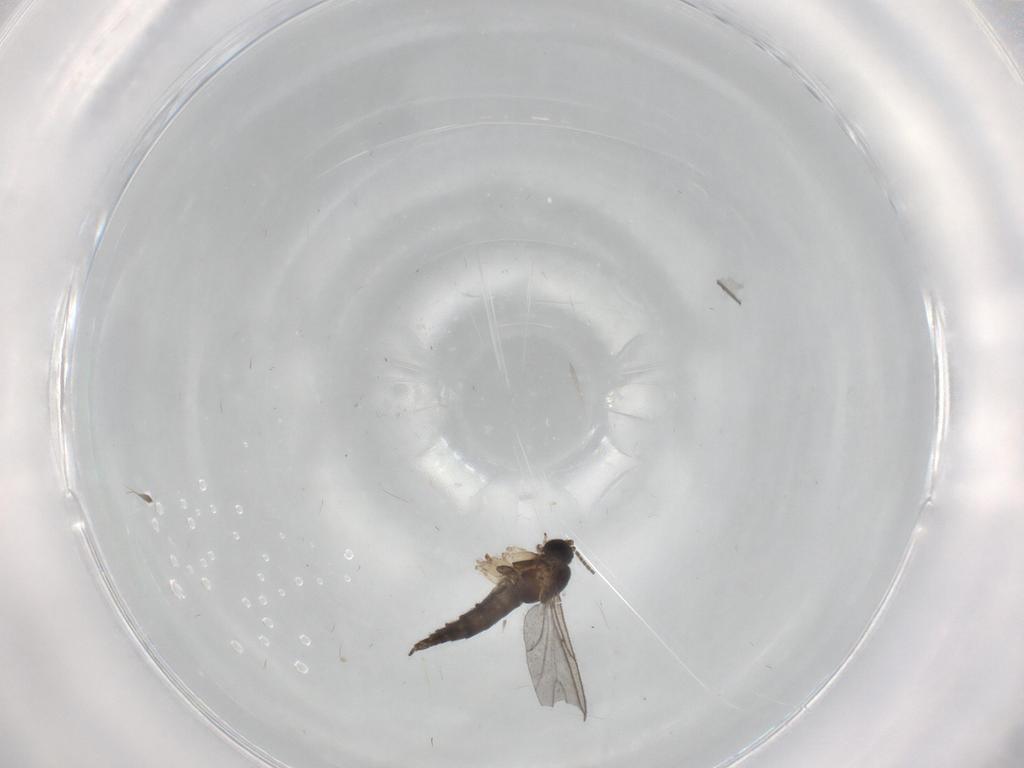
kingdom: Animalia
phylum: Arthropoda
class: Insecta
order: Diptera
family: Sciaridae
